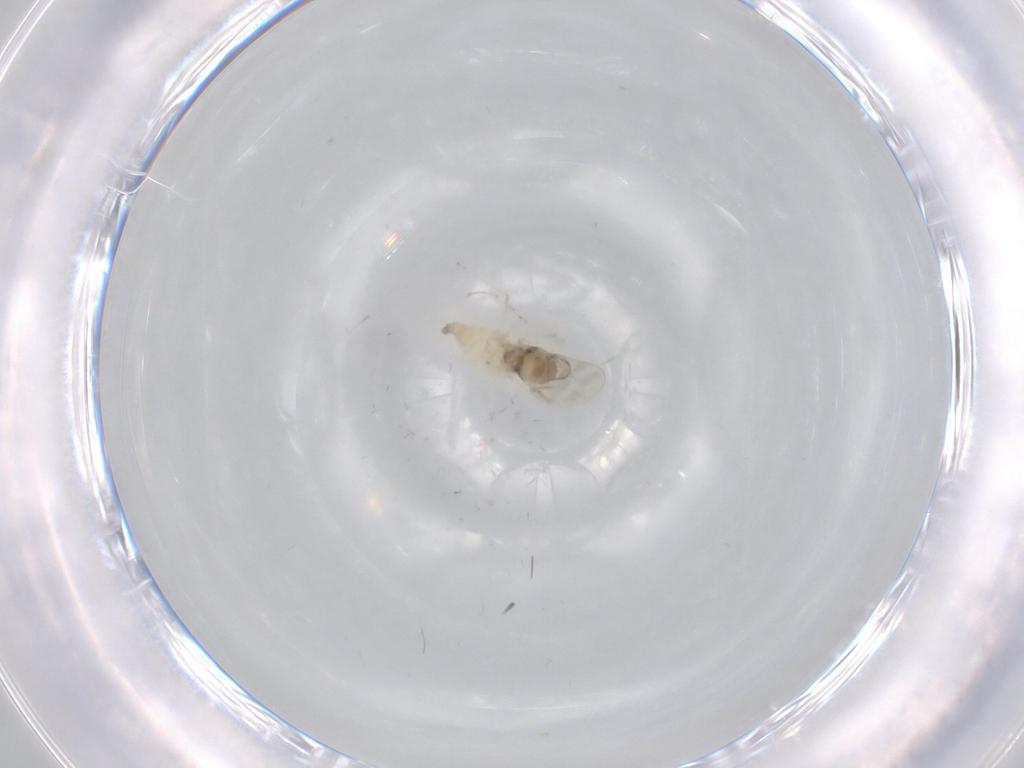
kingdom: Animalia
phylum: Arthropoda
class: Insecta
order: Diptera
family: Cecidomyiidae
